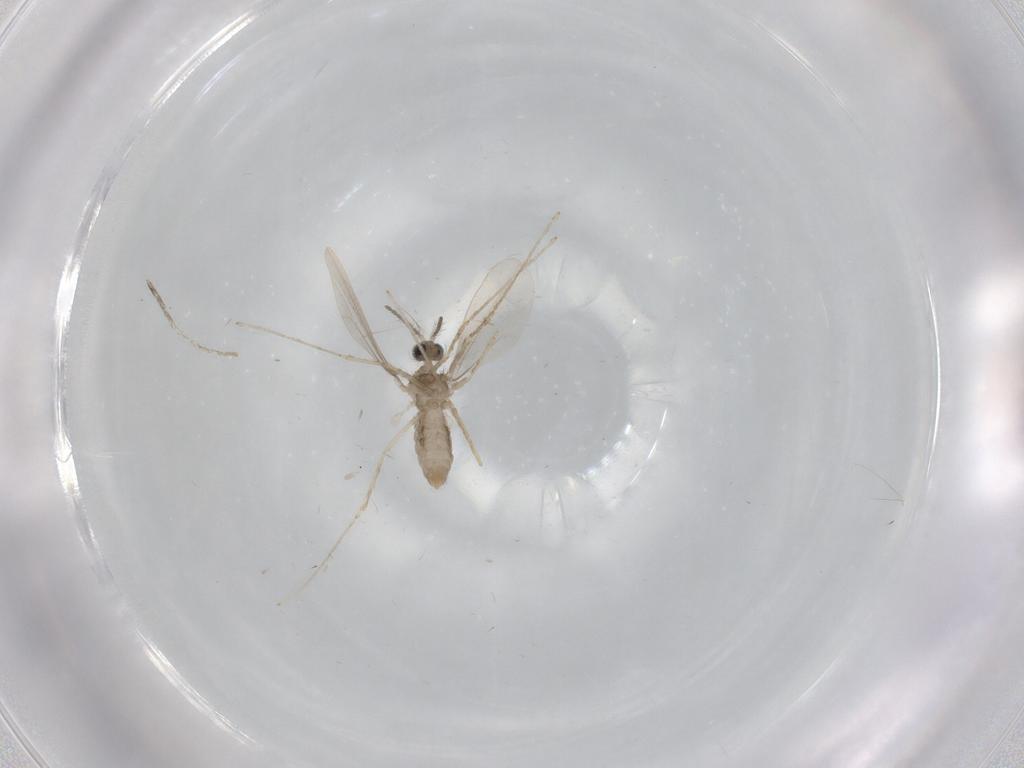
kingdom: Animalia
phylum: Arthropoda
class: Insecta
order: Diptera
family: Cecidomyiidae
